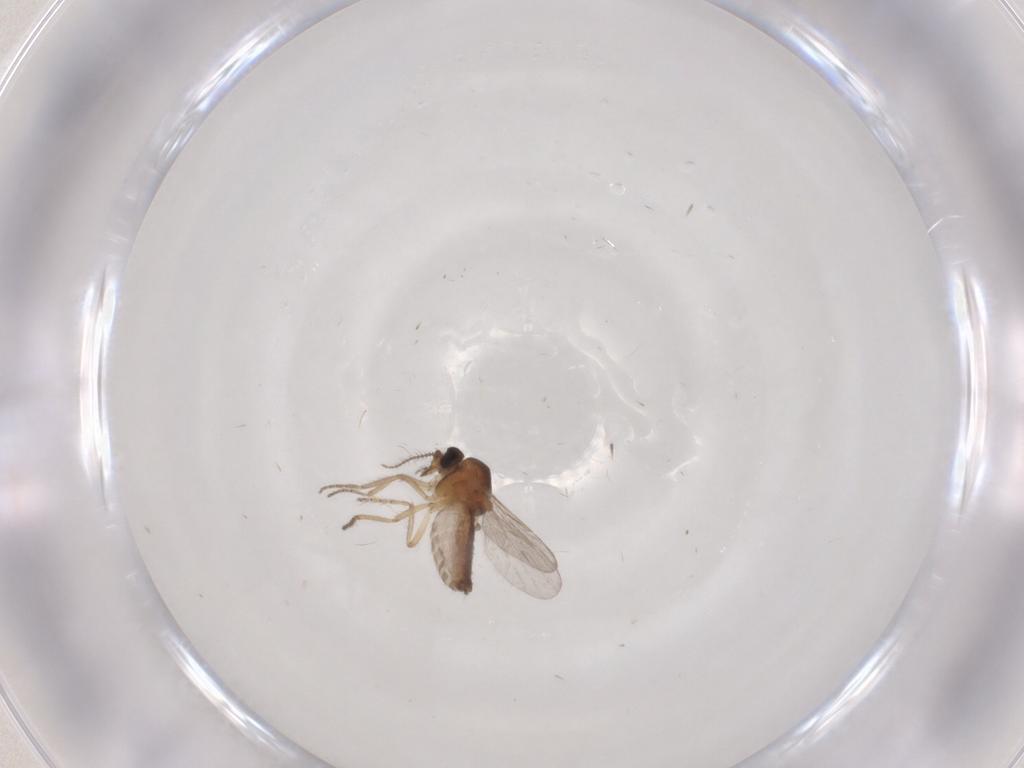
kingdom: Animalia
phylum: Arthropoda
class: Insecta
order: Diptera
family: Ceratopogonidae
